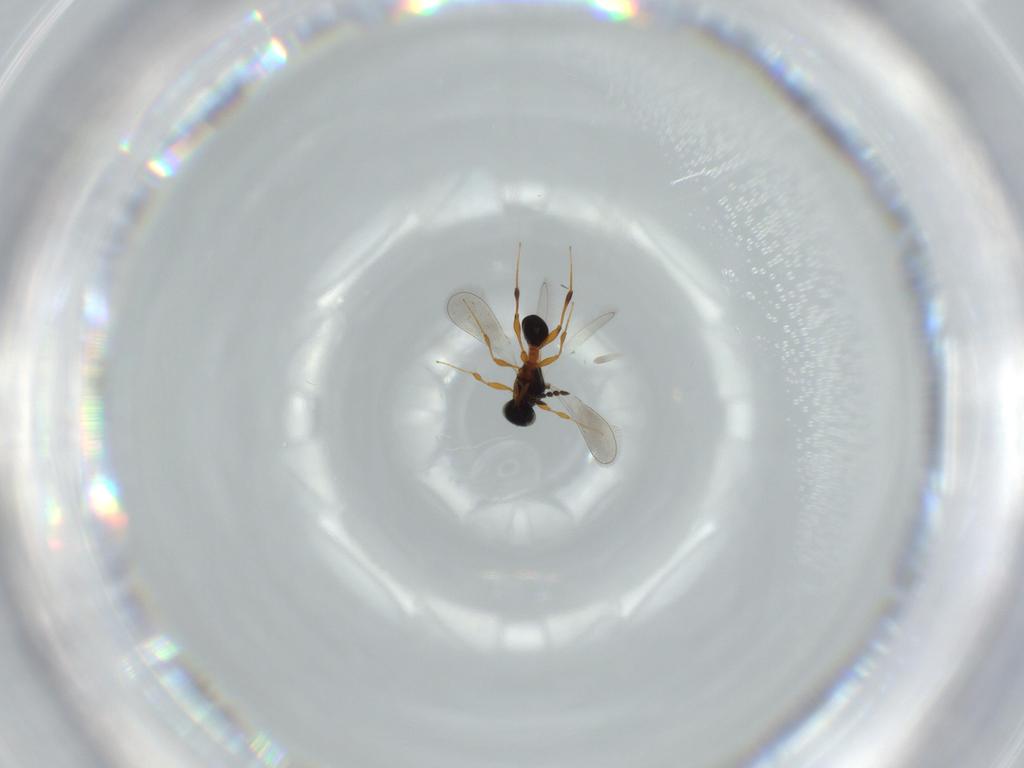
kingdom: Animalia
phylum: Arthropoda
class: Insecta
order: Hymenoptera
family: Platygastridae
